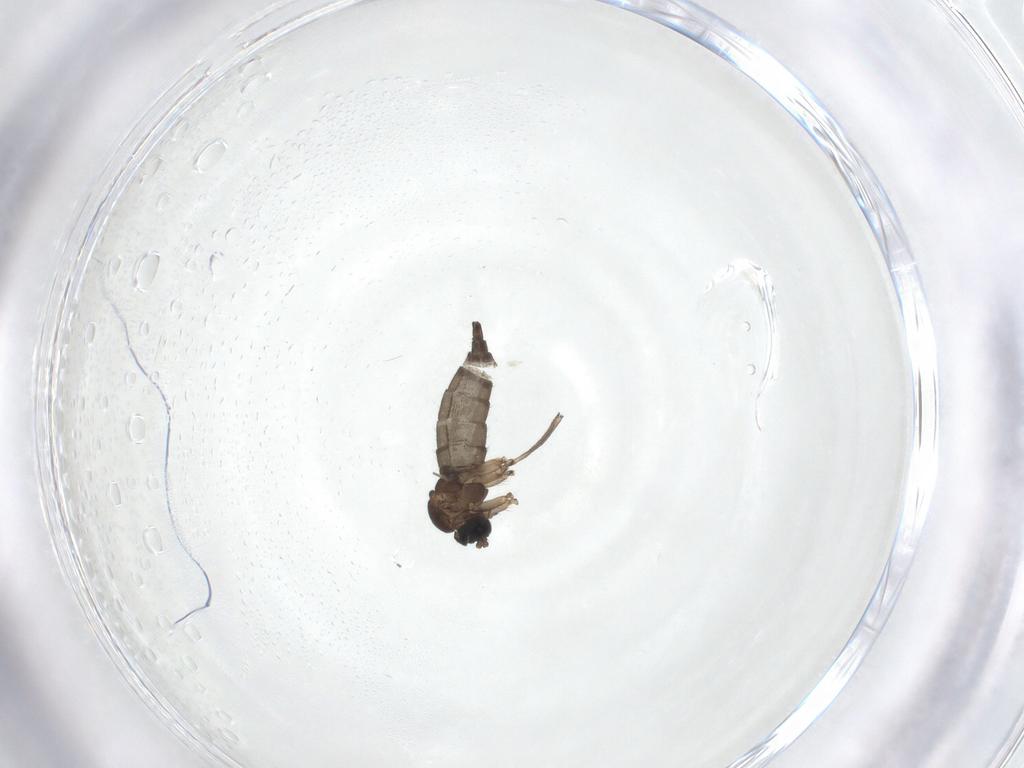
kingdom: Animalia
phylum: Arthropoda
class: Insecta
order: Diptera
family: Sciaridae
